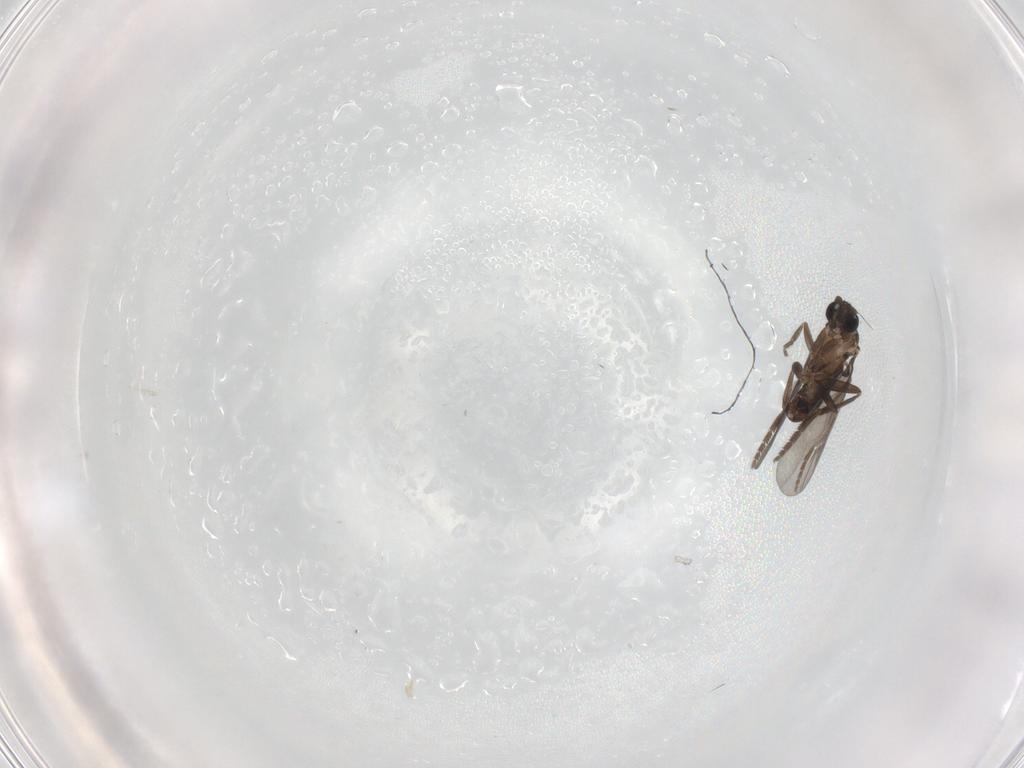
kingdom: Animalia
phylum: Arthropoda
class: Insecta
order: Diptera
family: Phoridae
